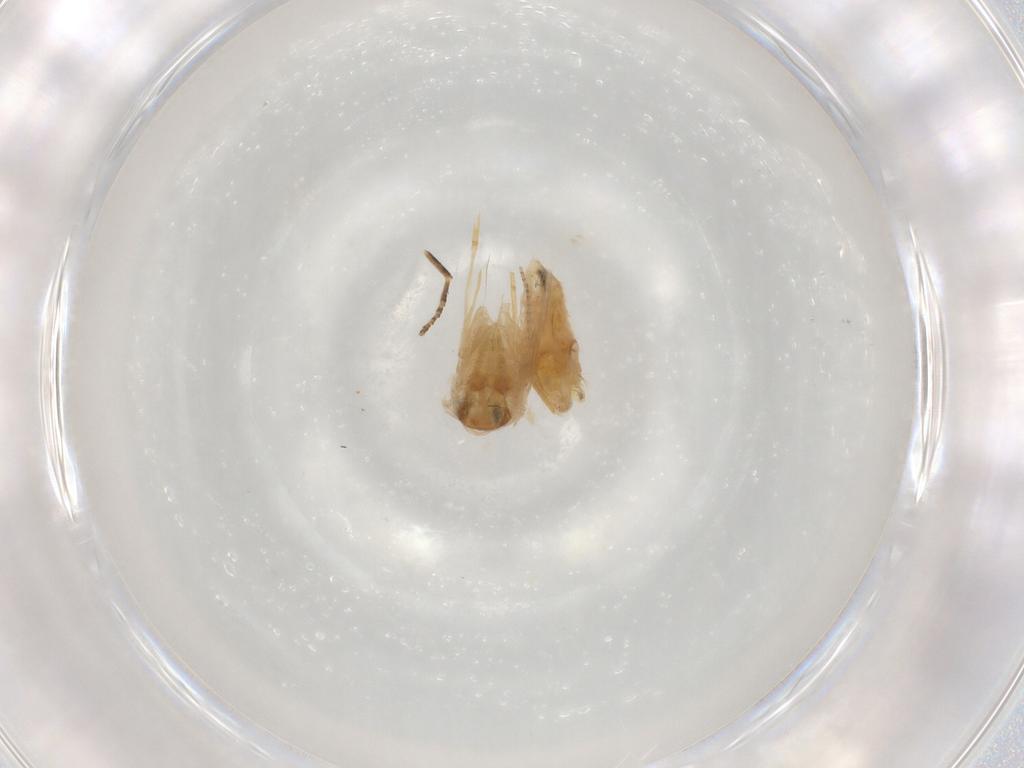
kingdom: Animalia
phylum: Arthropoda
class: Insecta
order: Lepidoptera
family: Noctuidae
